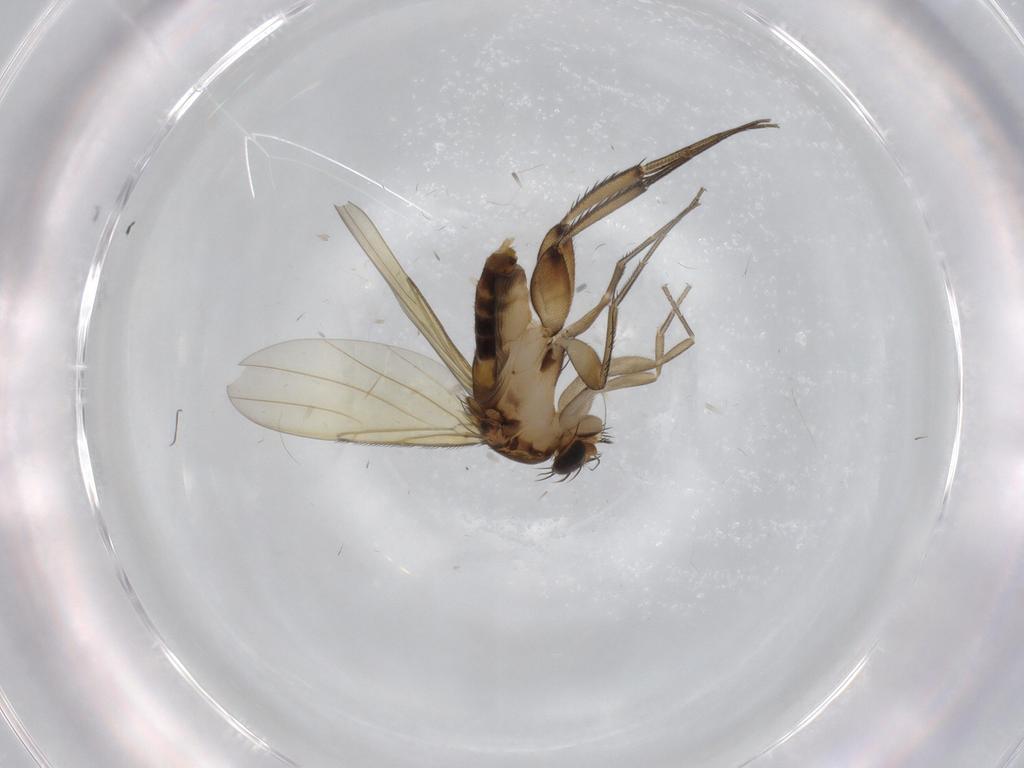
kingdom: Animalia
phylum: Arthropoda
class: Insecta
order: Diptera
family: Phoridae
